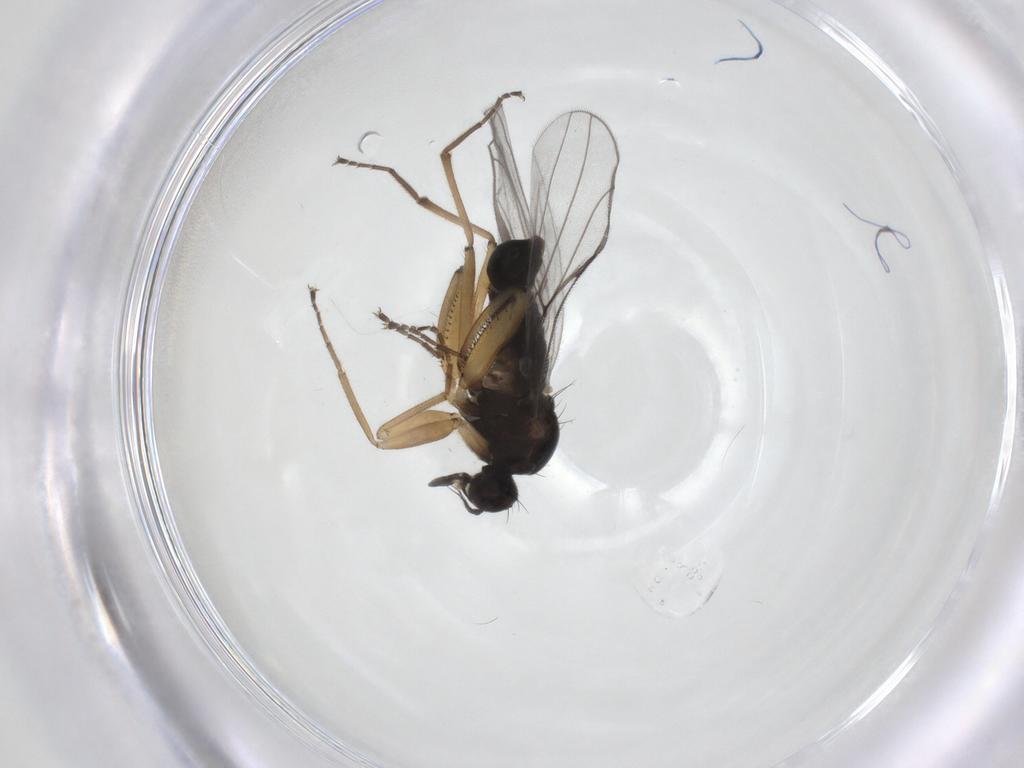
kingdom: Animalia
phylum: Arthropoda
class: Insecta
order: Diptera
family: Hybotidae
